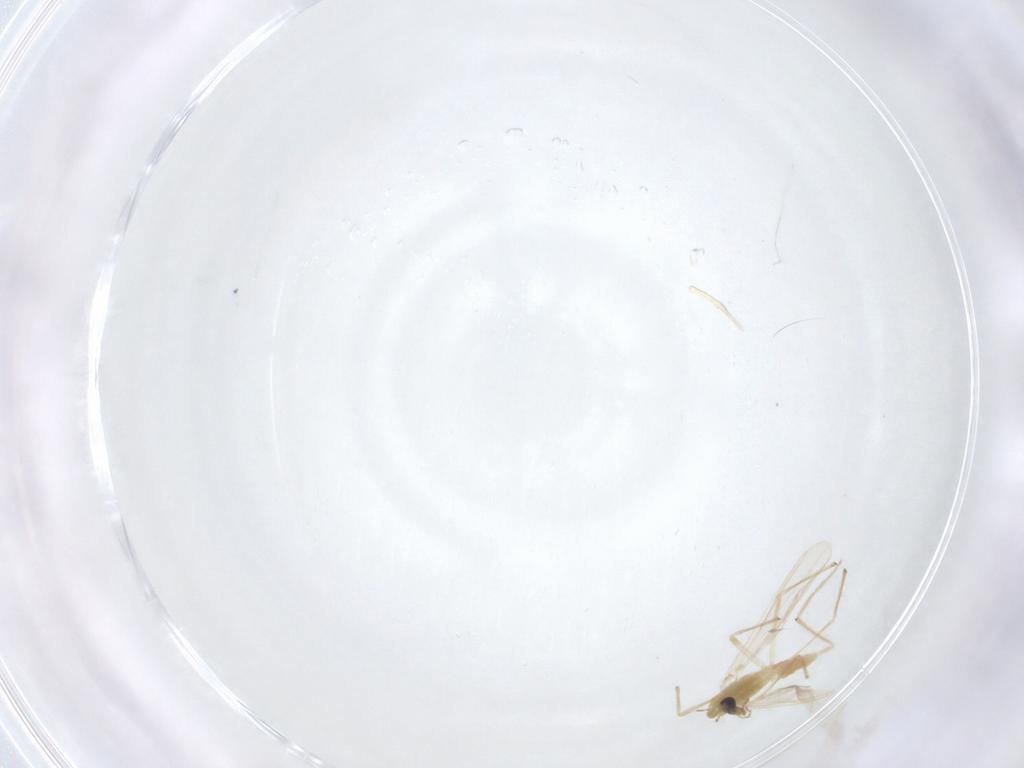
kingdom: Animalia
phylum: Arthropoda
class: Insecta
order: Diptera
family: Chironomidae
